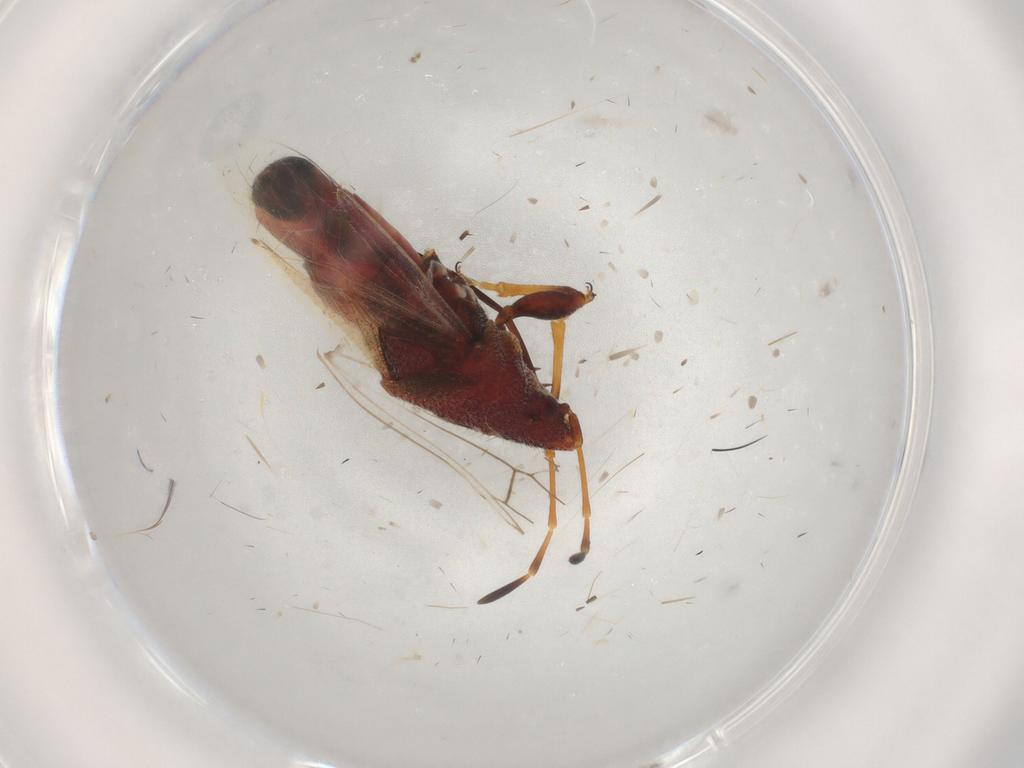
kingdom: Animalia
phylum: Arthropoda
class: Insecta
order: Hemiptera
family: Oxycarenidae
